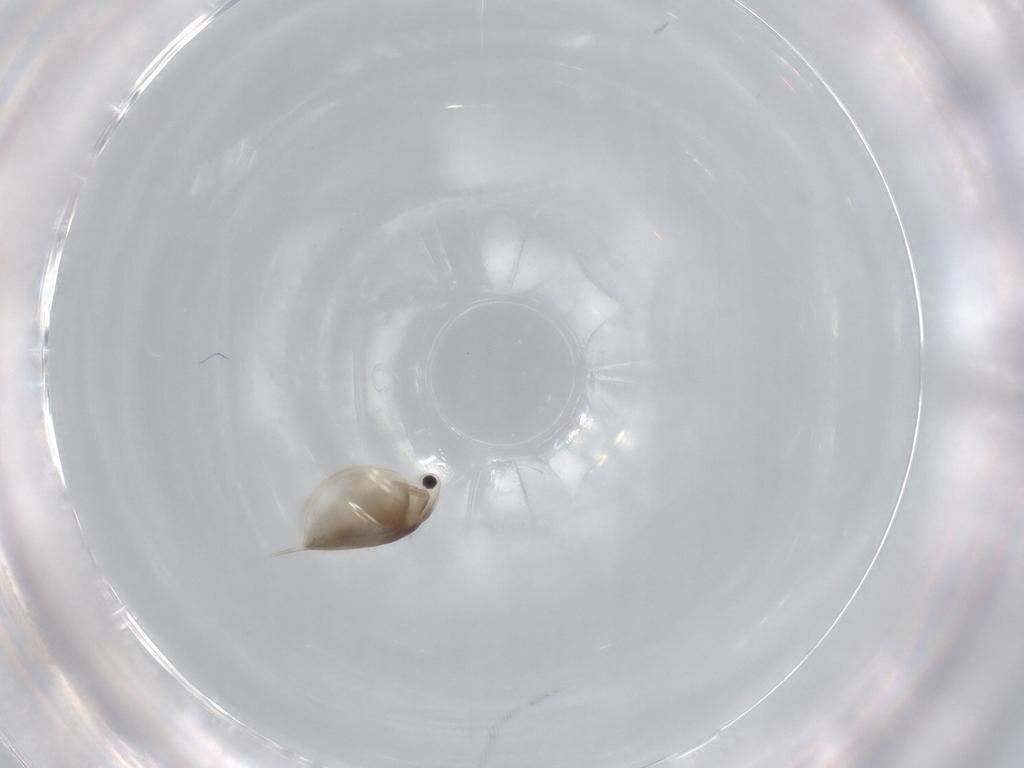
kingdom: Animalia
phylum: Arthropoda
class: Branchiopoda
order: Diplostraca
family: Daphniidae
